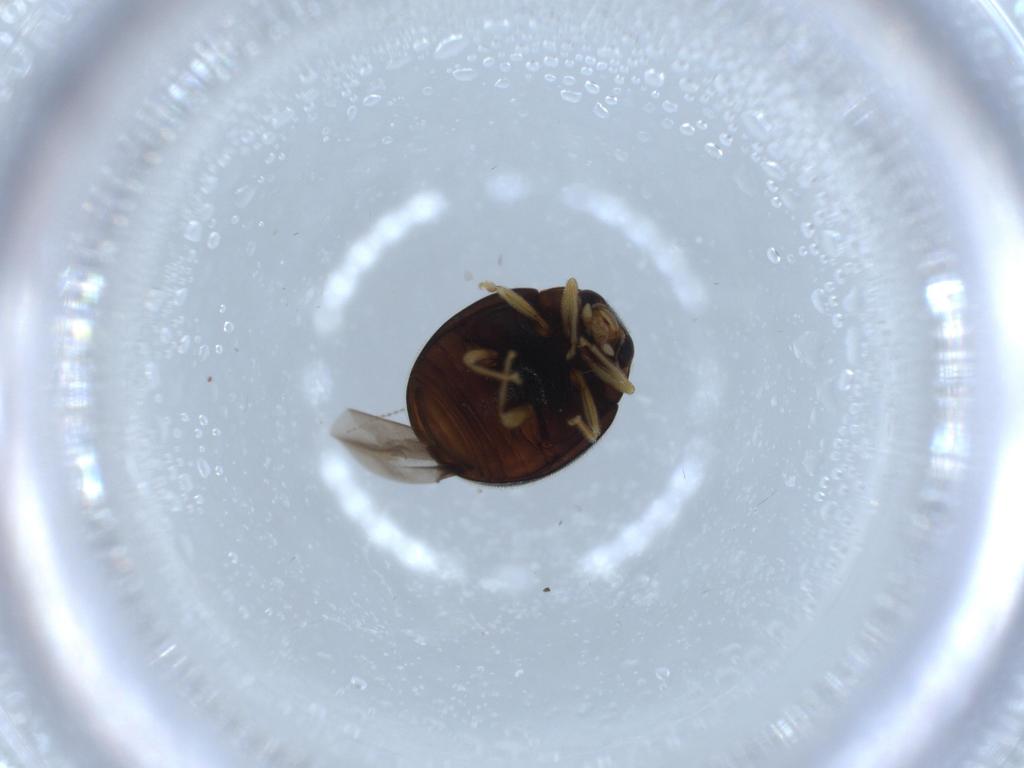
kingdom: Animalia
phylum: Arthropoda
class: Insecta
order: Coleoptera
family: Coccinellidae
